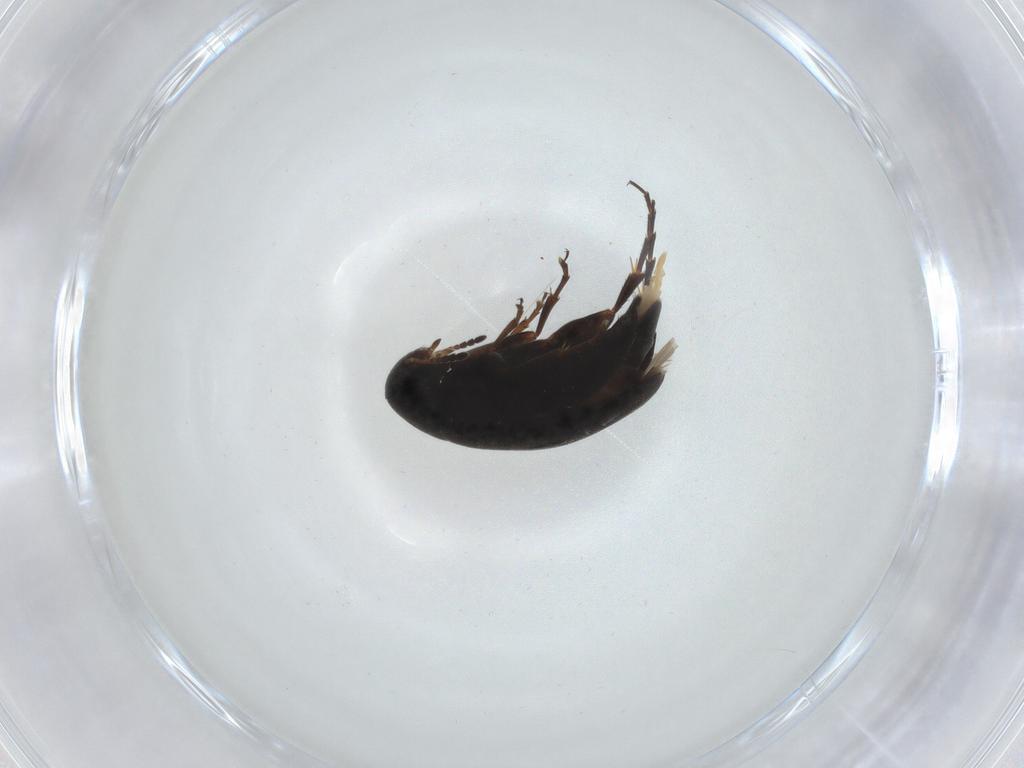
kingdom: Animalia
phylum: Arthropoda
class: Insecta
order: Coleoptera
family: Scraptiidae
